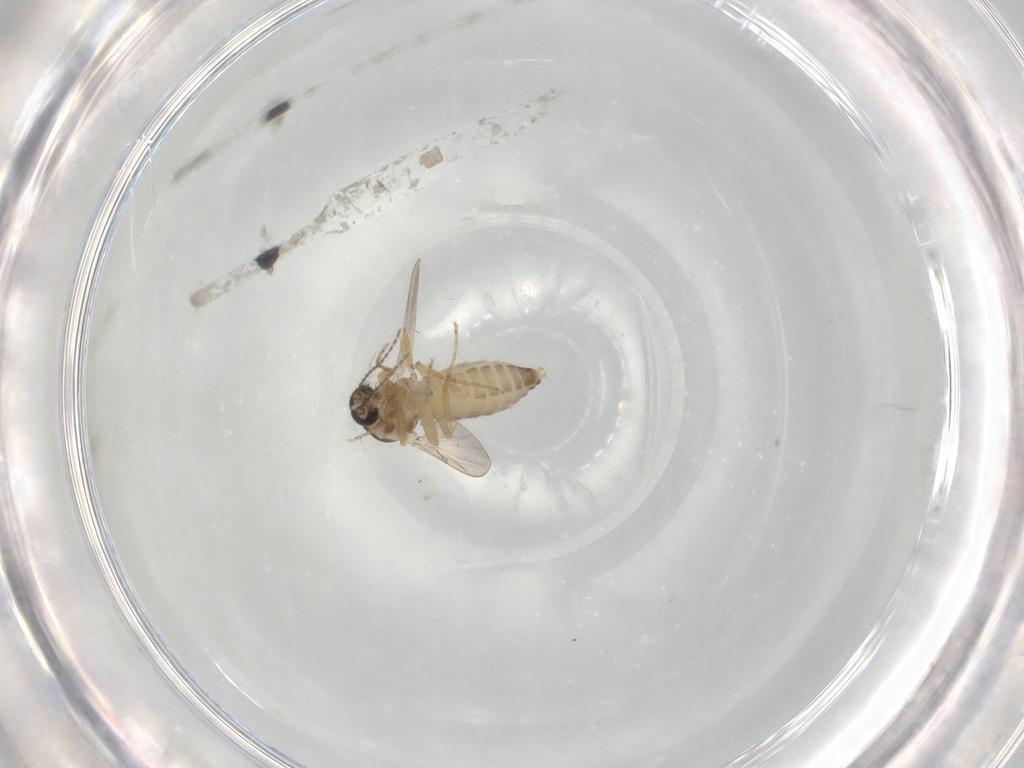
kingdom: Animalia
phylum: Arthropoda
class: Insecta
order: Diptera
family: Ceratopogonidae
